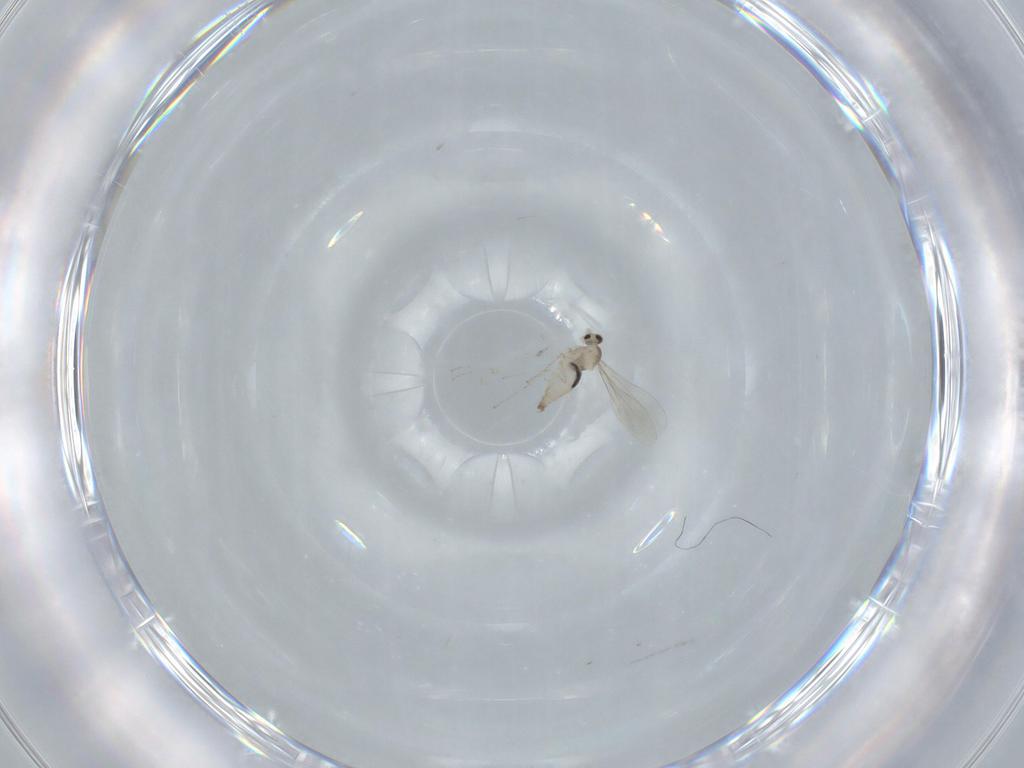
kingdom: Animalia
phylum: Arthropoda
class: Insecta
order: Diptera
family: Cecidomyiidae
